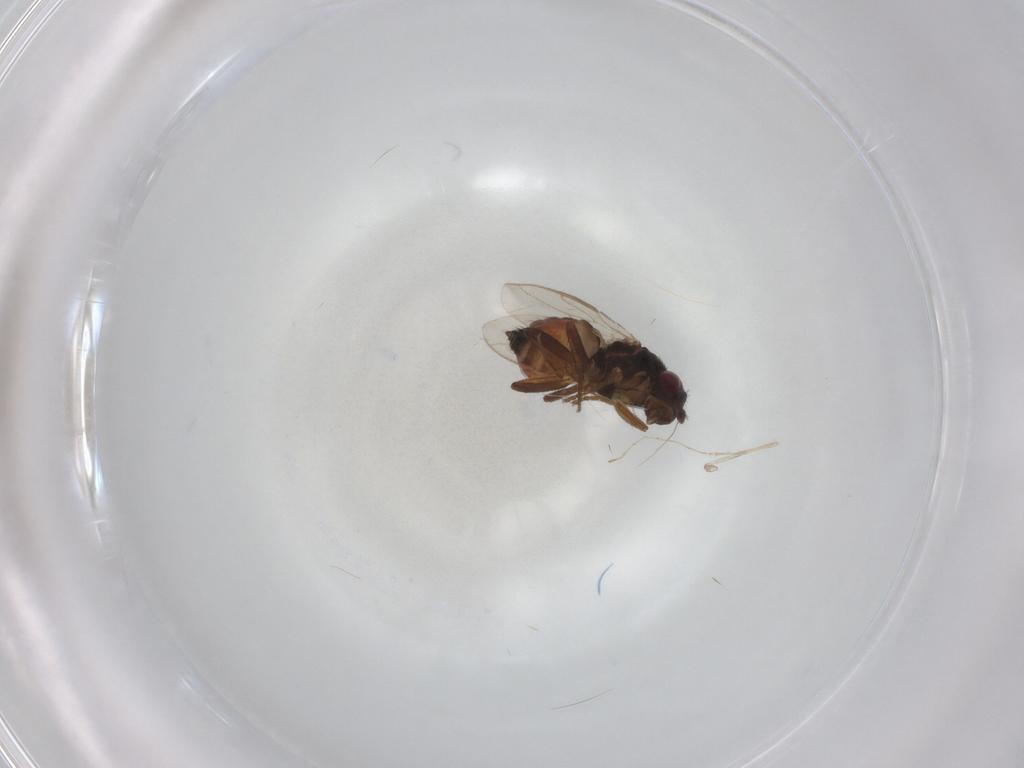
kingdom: Animalia
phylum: Arthropoda
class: Insecta
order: Diptera
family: Sphaeroceridae
